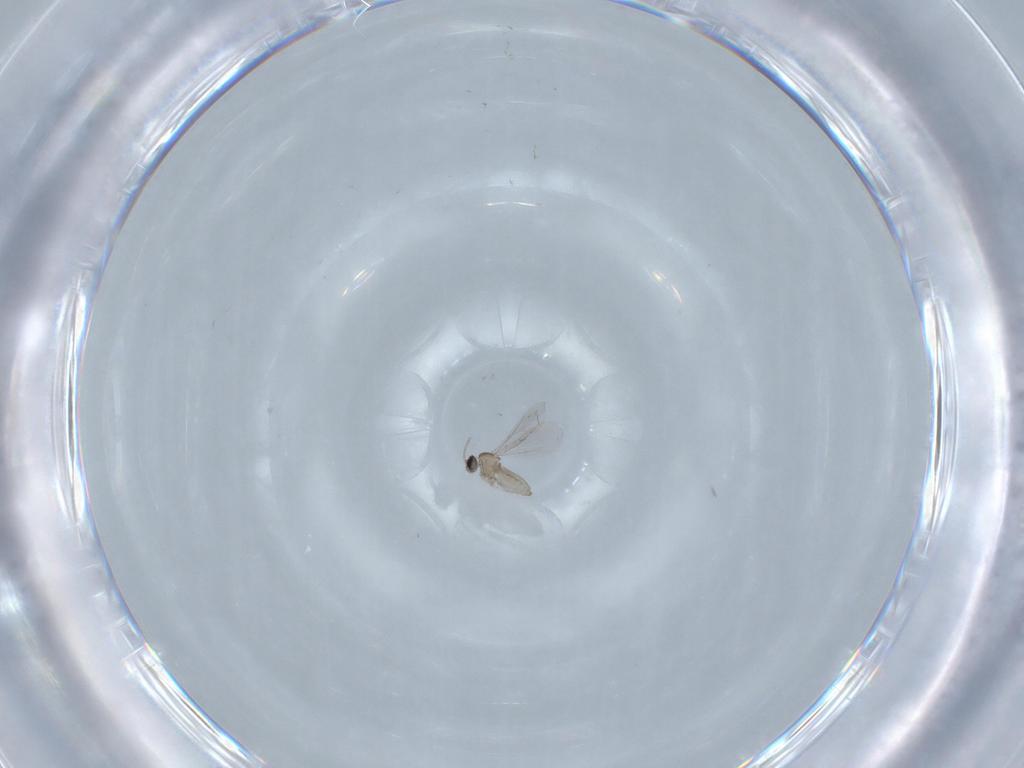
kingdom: Animalia
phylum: Arthropoda
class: Insecta
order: Diptera
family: Cecidomyiidae
